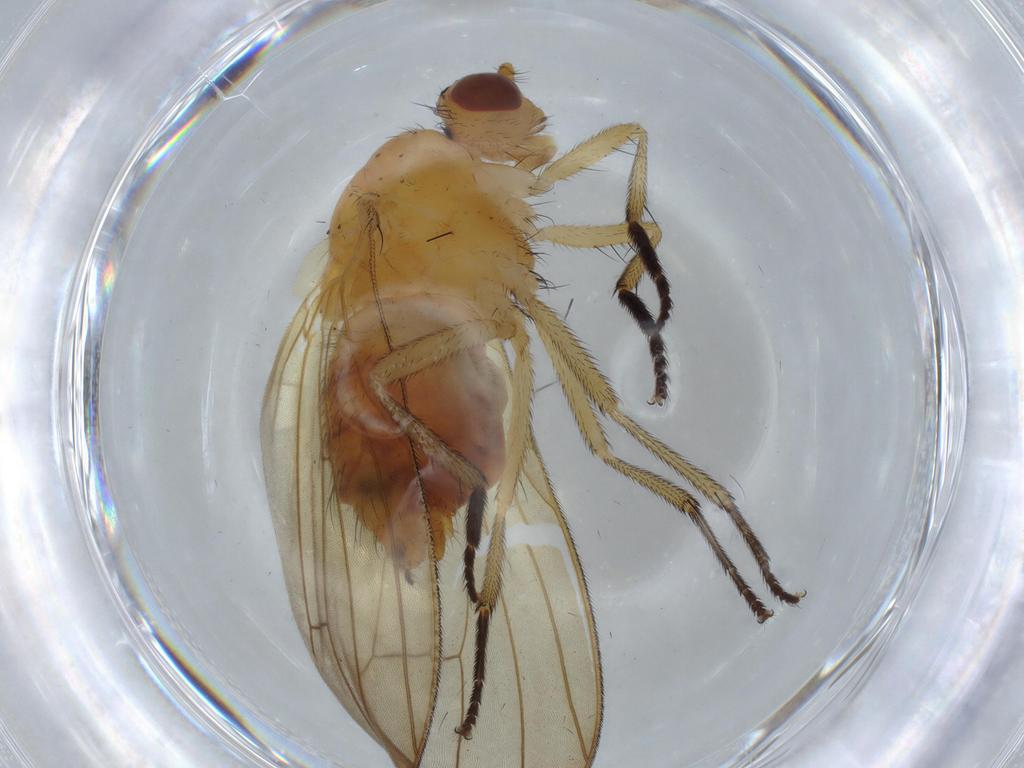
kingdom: Animalia
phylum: Arthropoda
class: Insecta
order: Diptera
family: Lauxaniidae
